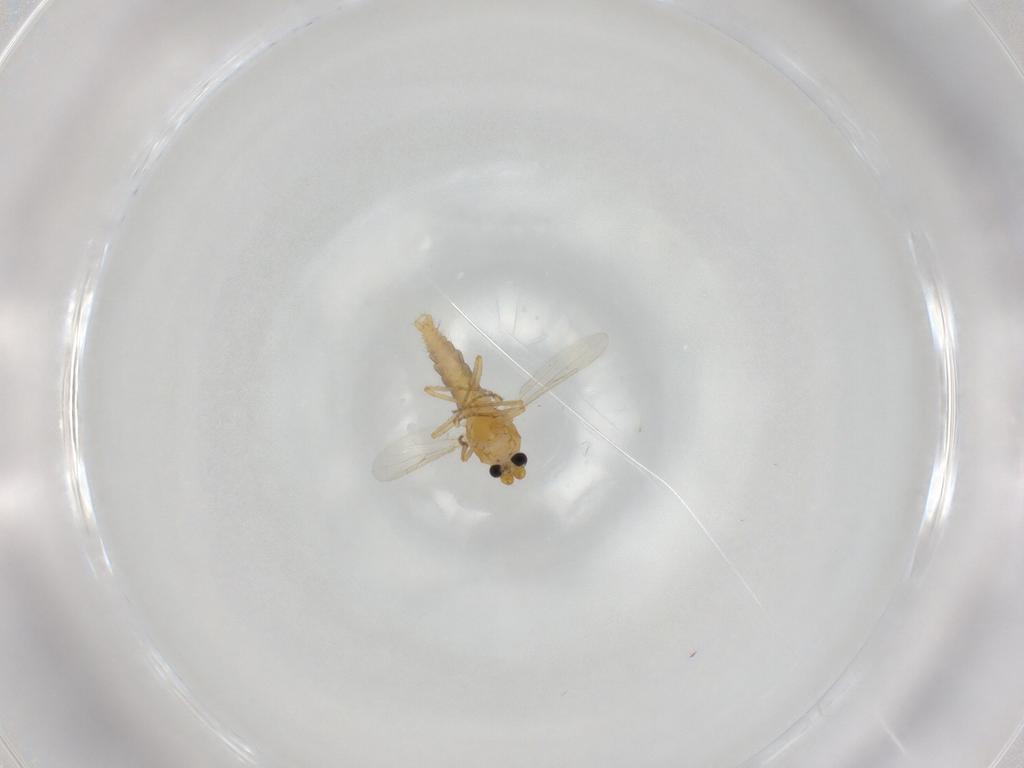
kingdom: Animalia
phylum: Arthropoda
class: Insecta
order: Diptera
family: Ceratopogonidae
